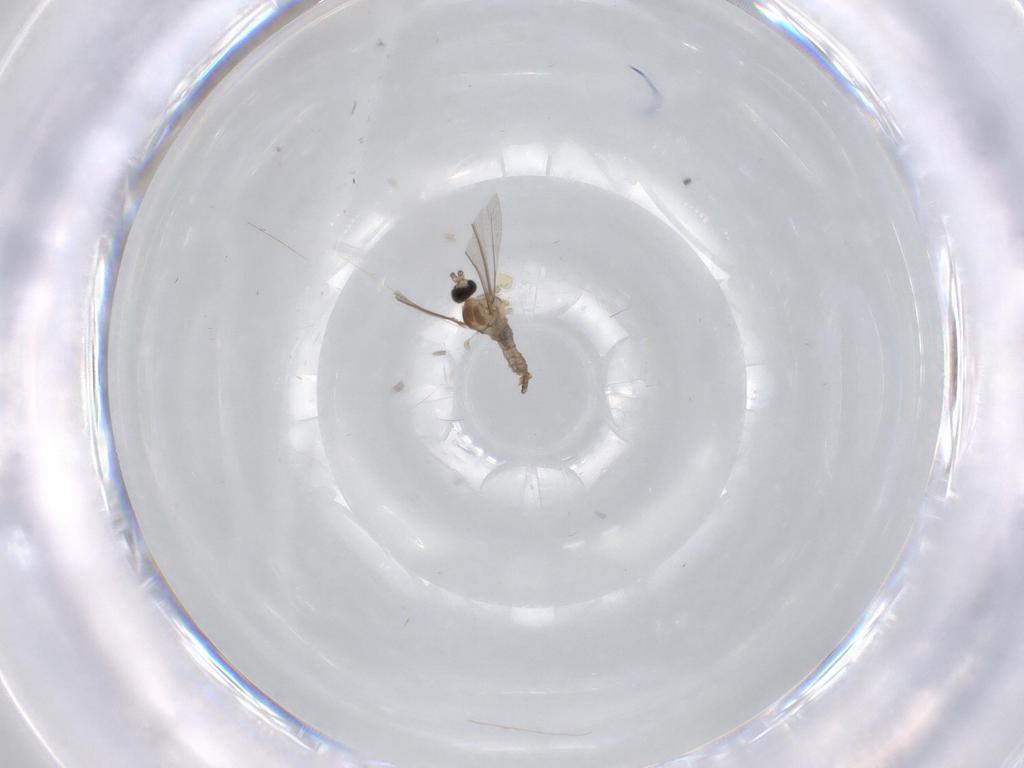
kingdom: Animalia
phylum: Arthropoda
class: Insecta
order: Diptera
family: Cecidomyiidae
